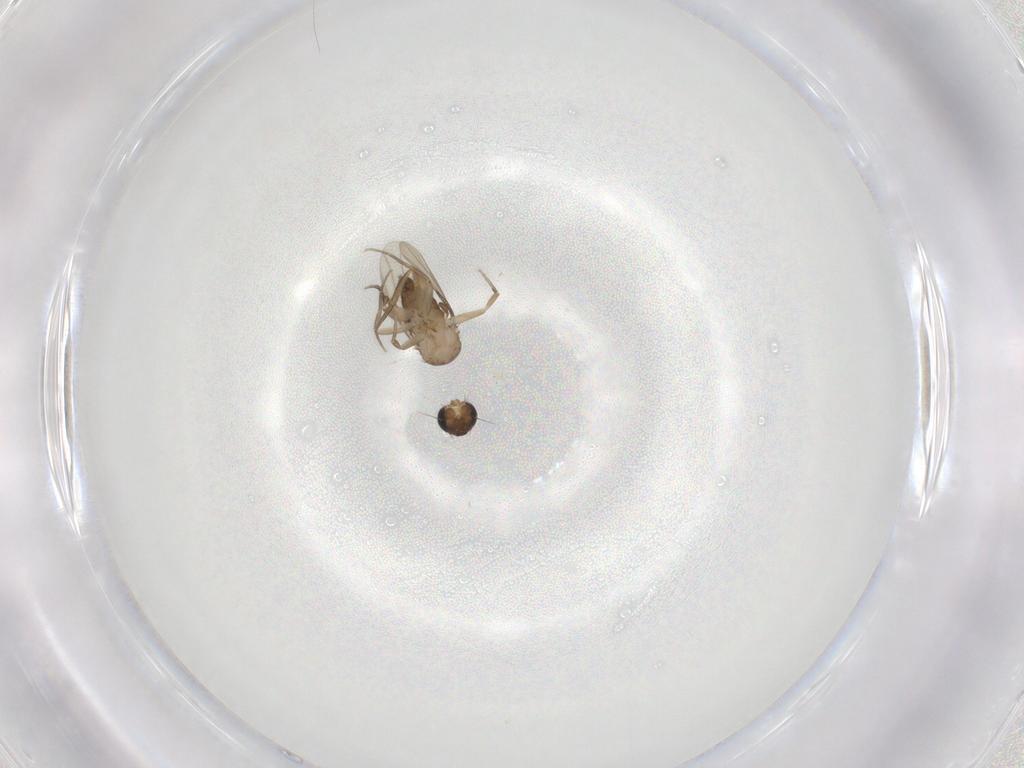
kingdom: Animalia
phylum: Arthropoda
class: Insecta
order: Diptera
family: Phoridae
